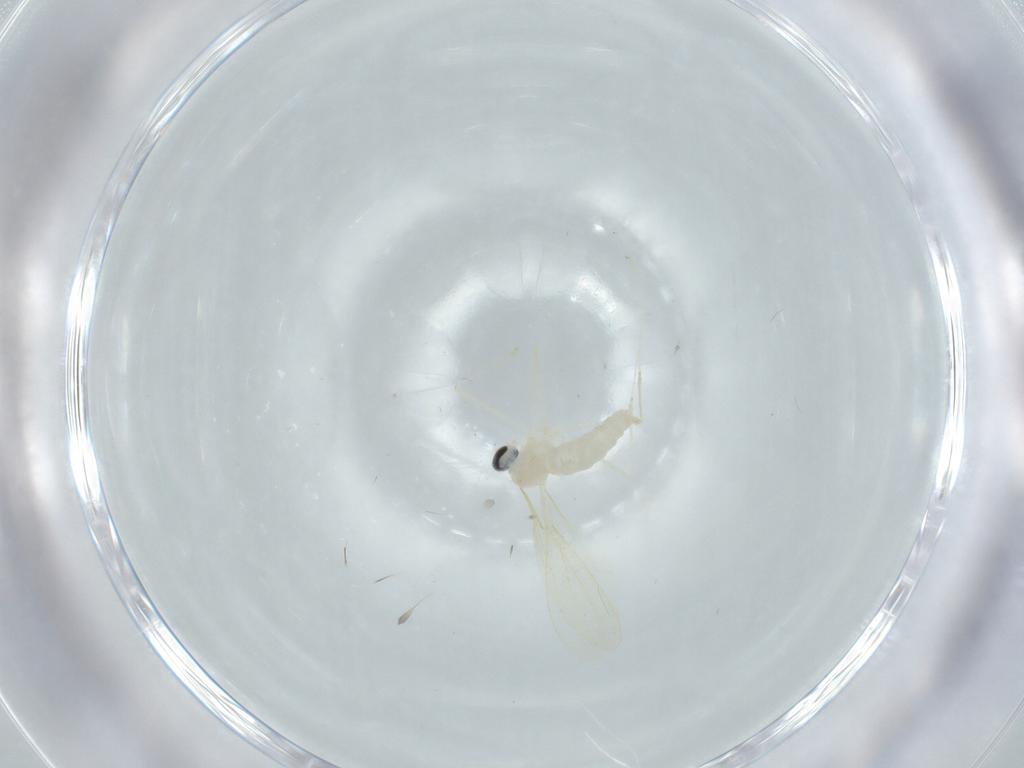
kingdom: Animalia
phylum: Arthropoda
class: Insecta
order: Diptera
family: Cecidomyiidae
